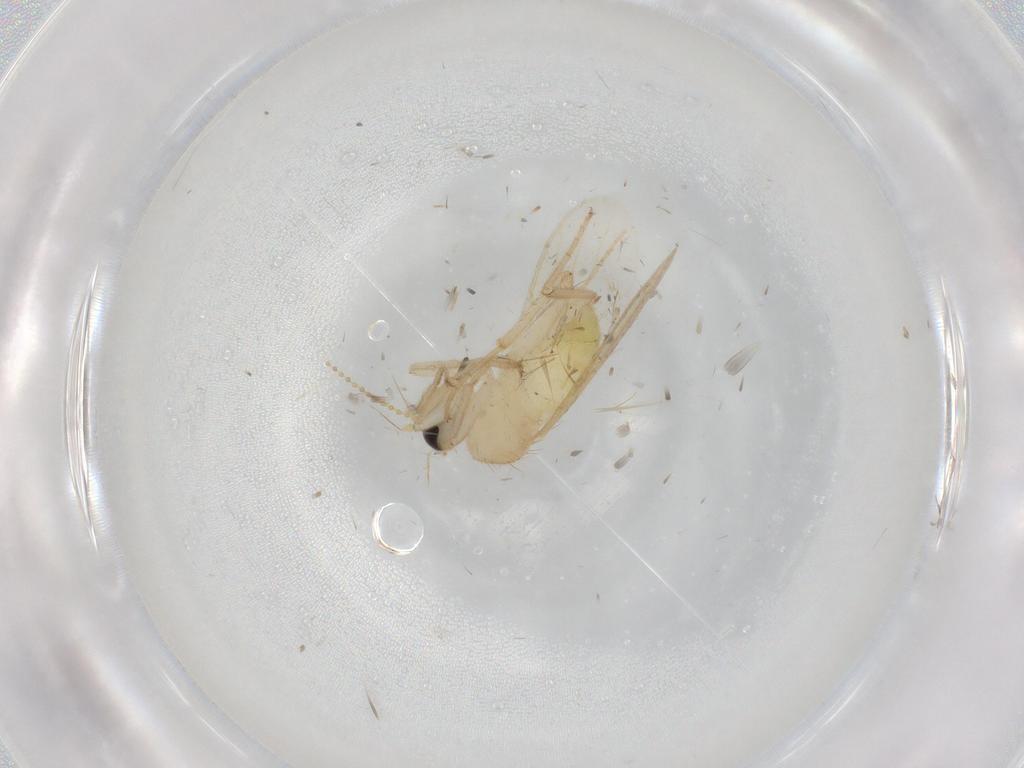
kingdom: Animalia
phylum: Arthropoda
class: Insecta
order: Diptera
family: Hybotidae
